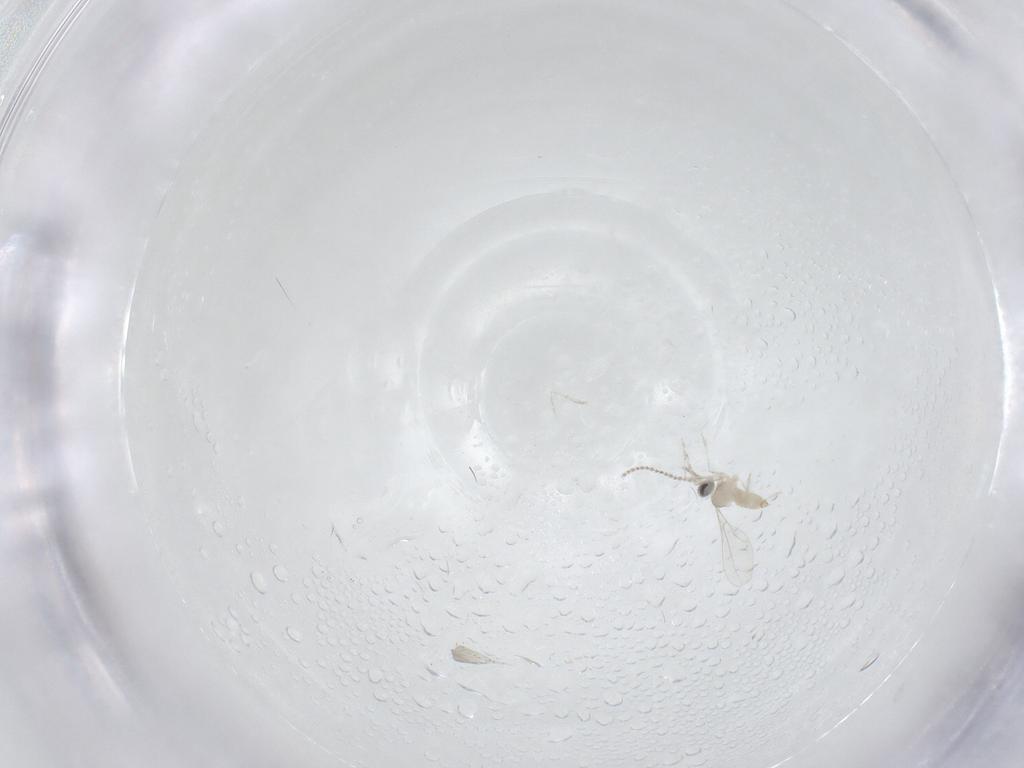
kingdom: Animalia
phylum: Arthropoda
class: Insecta
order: Diptera
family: Cecidomyiidae
